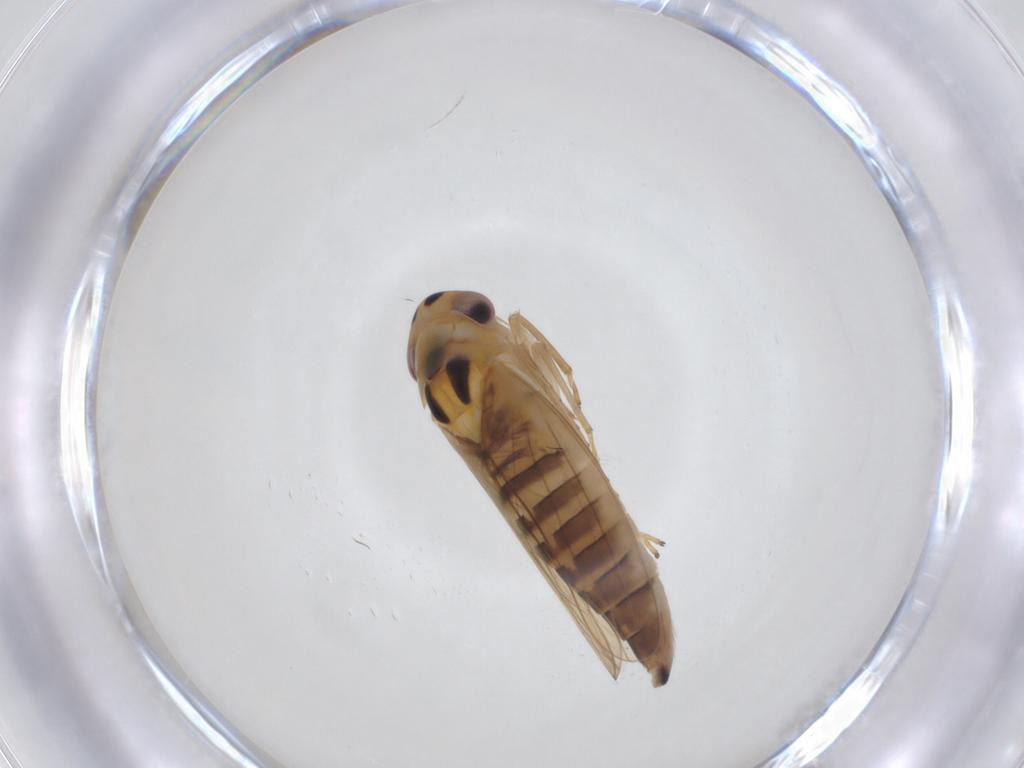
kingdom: Animalia
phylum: Arthropoda
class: Insecta
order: Hemiptera
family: Cicadellidae
